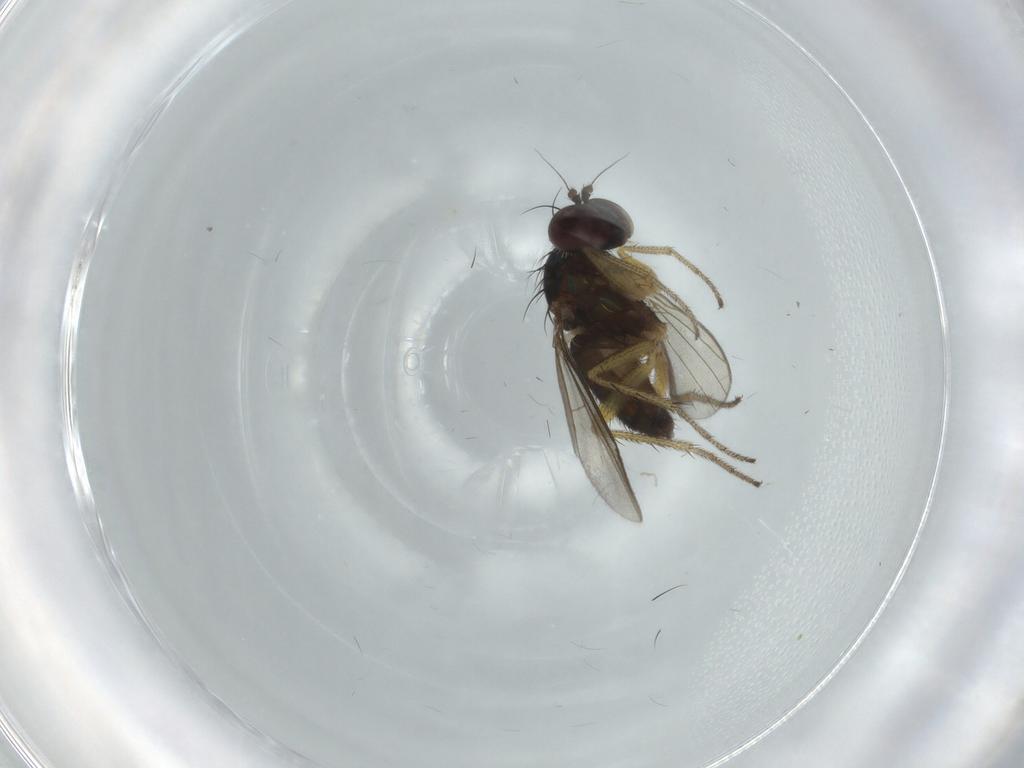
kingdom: Animalia
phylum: Arthropoda
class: Insecta
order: Diptera
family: Dolichopodidae
